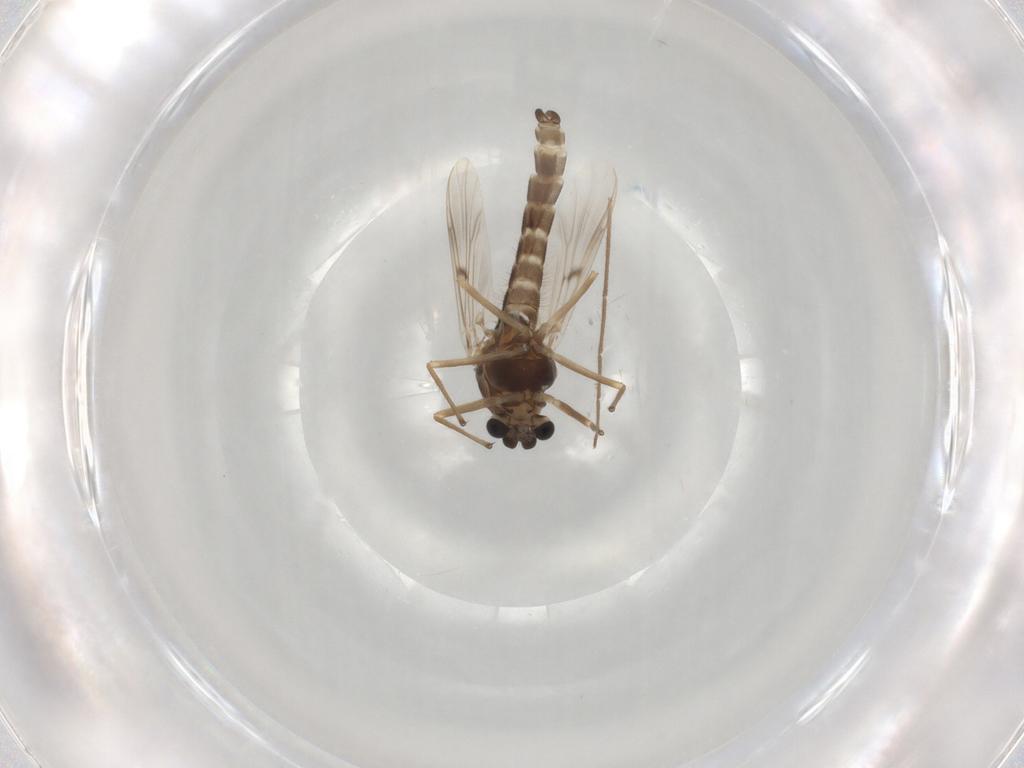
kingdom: Animalia
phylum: Arthropoda
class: Insecta
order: Diptera
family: Chironomidae
